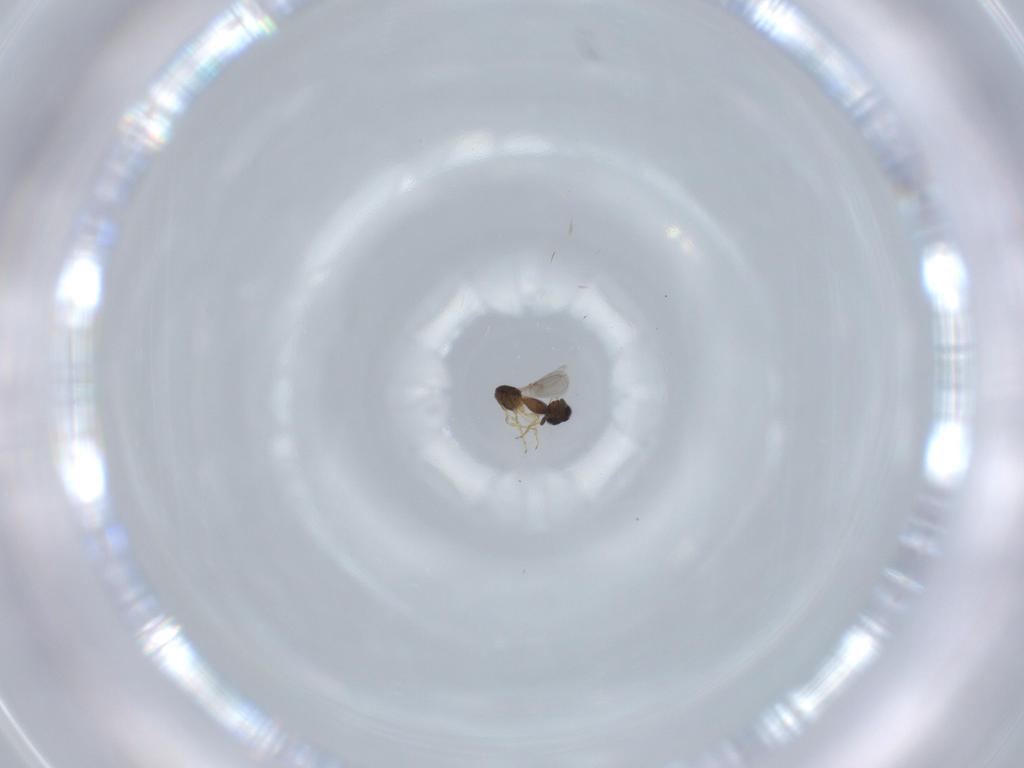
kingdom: Animalia
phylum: Arthropoda
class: Insecta
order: Hymenoptera
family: Scelionidae
